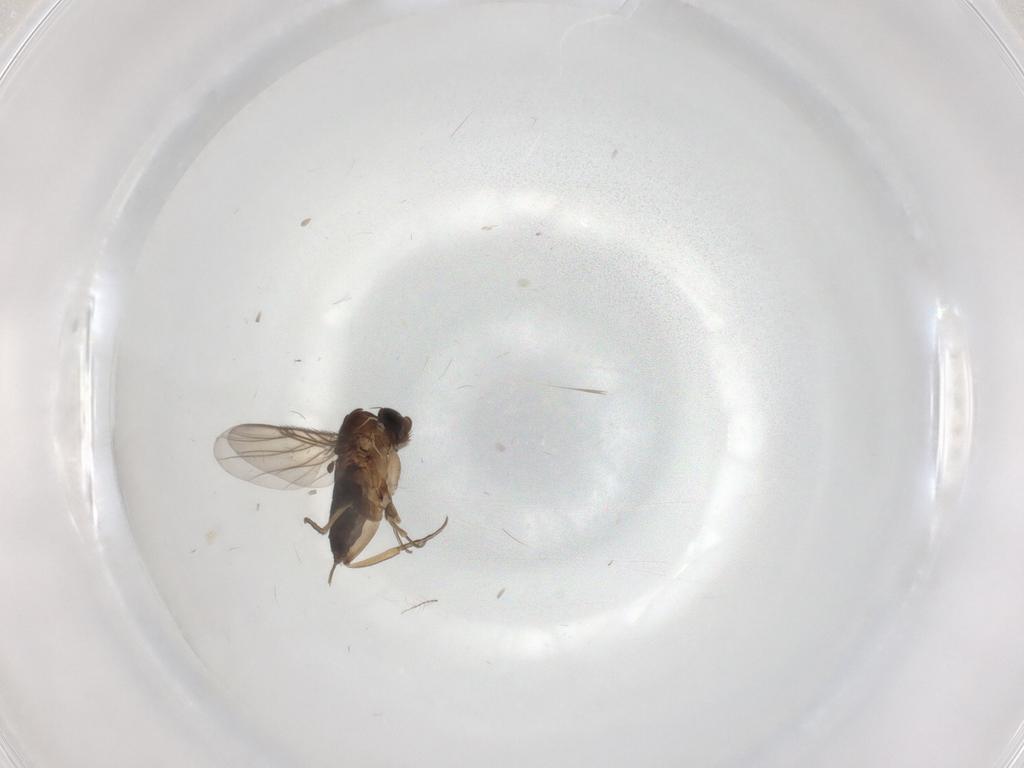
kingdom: Animalia
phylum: Arthropoda
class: Insecta
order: Diptera
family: Limoniidae
